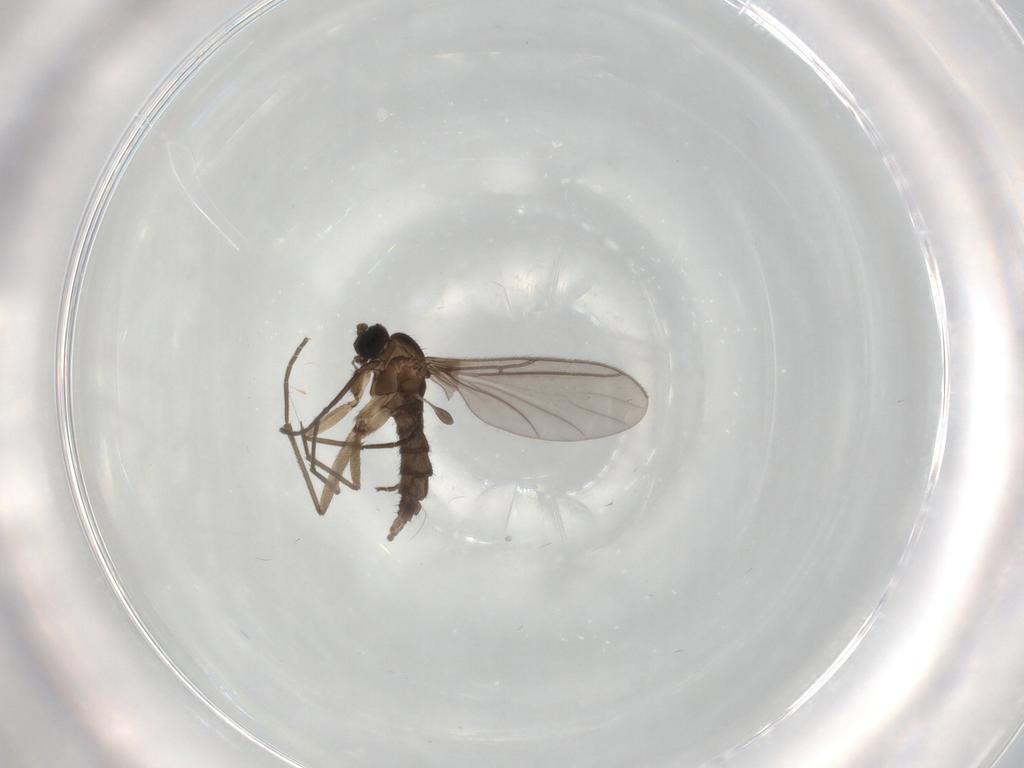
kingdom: Animalia
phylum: Arthropoda
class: Insecta
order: Diptera
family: Sciaridae
